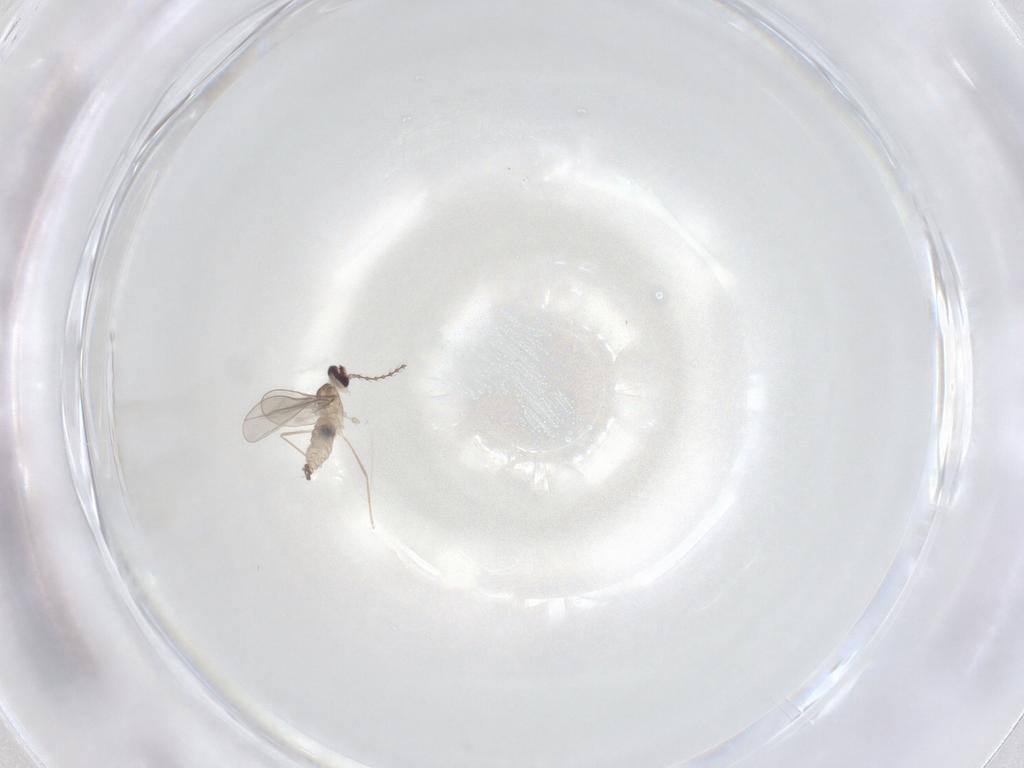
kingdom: Animalia
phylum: Arthropoda
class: Insecta
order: Diptera
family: Cecidomyiidae
